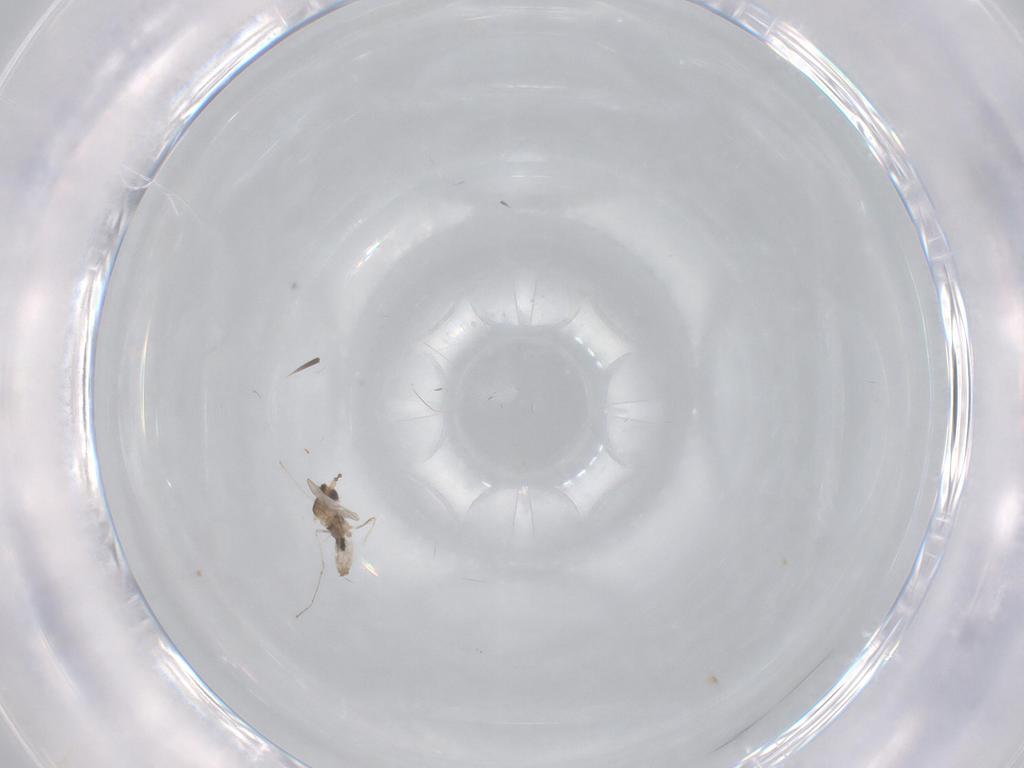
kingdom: Animalia
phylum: Arthropoda
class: Insecta
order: Diptera
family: Cecidomyiidae
